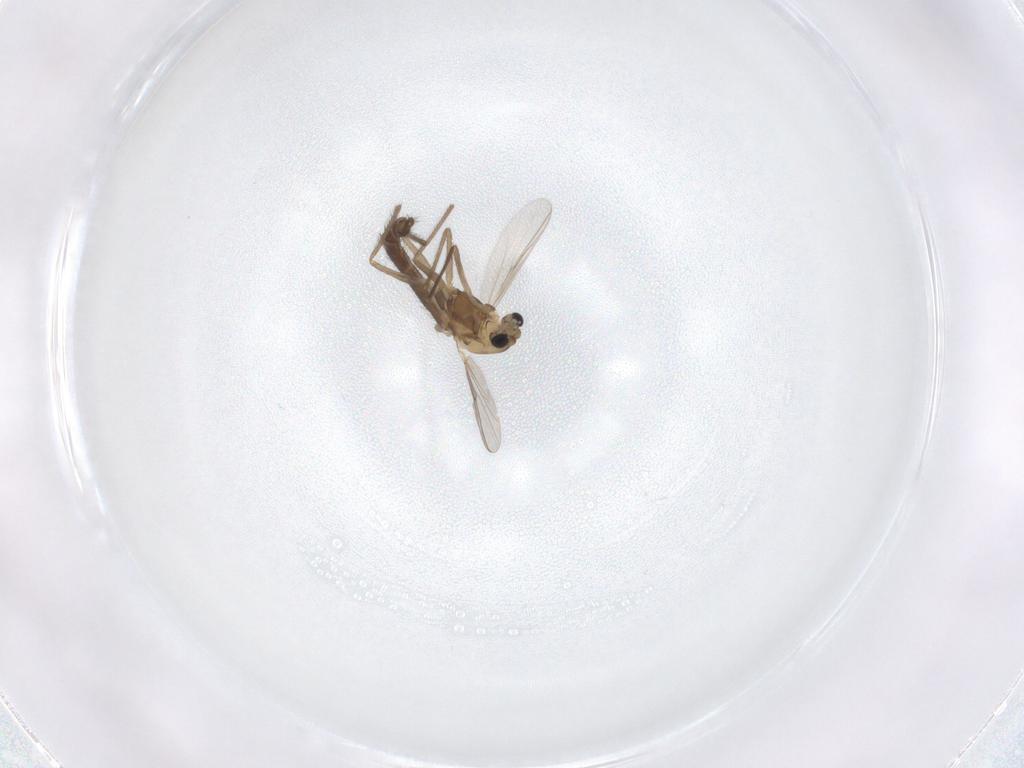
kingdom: Animalia
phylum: Arthropoda
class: Insecta
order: Diptera
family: Chironomidae
